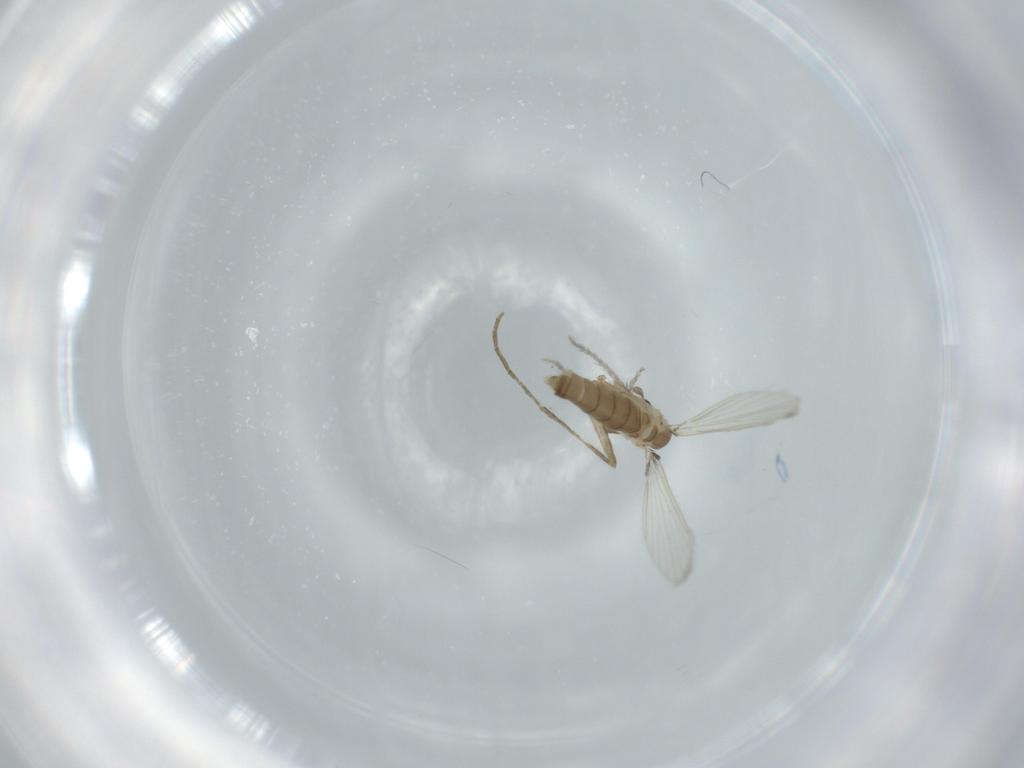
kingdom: Animalia
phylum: Arthropoda
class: Insecta
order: Diptera
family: Psychodidae
